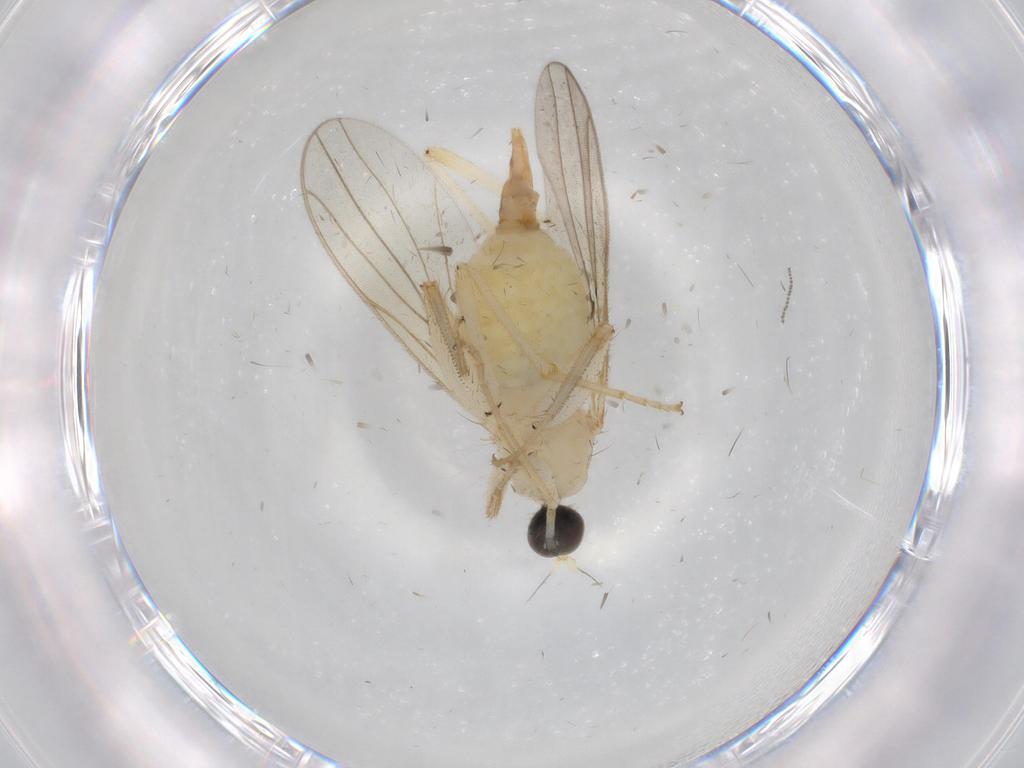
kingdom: Animalia
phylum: Arthropoda
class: Insecta
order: Diptera
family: Hybotidae
